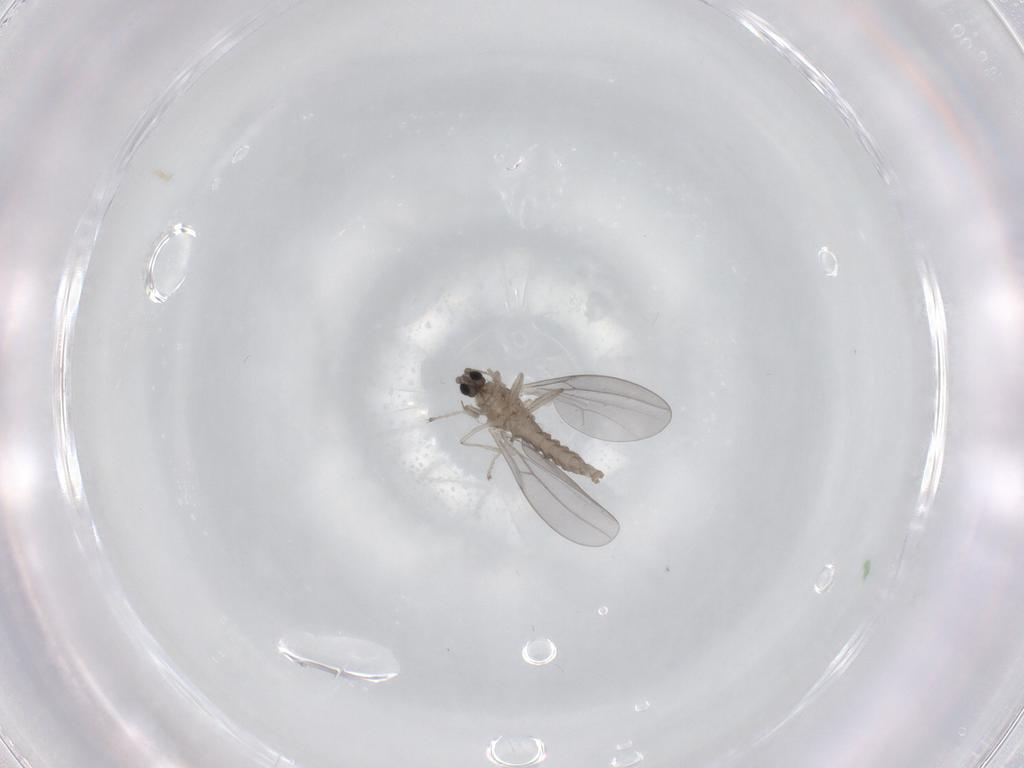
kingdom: Animalia
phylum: Arthropoda
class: Insecta
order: Diptera
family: Cecidomyiidae
